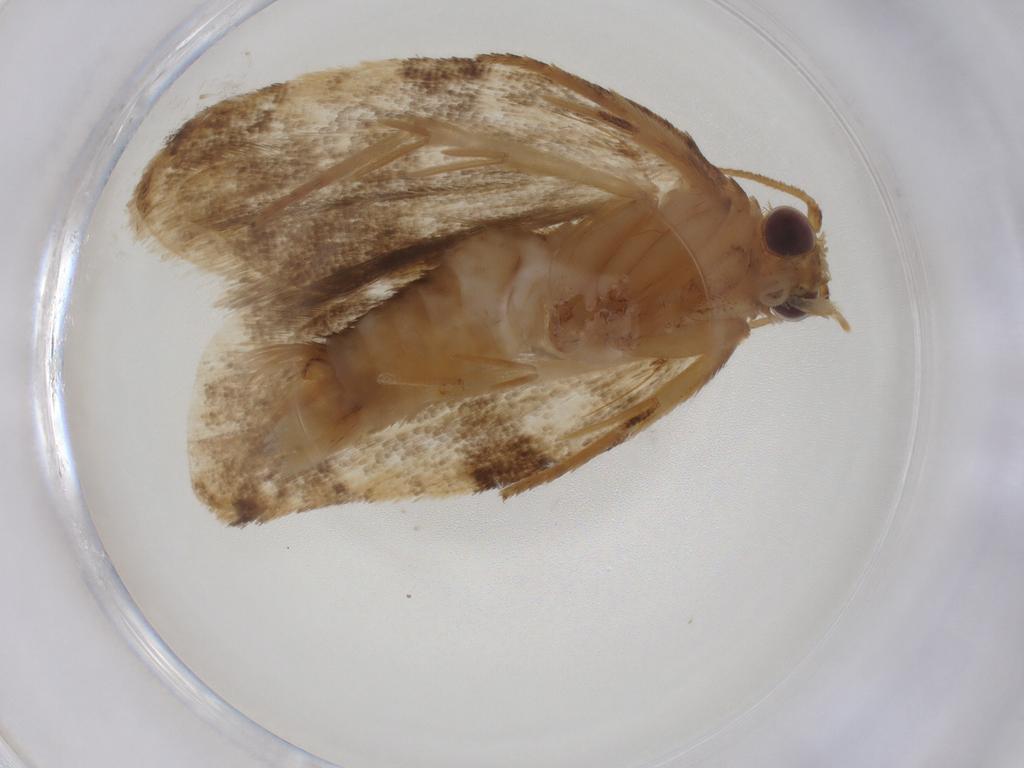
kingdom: Animalia
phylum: Arthropoda
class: Insecta
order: Lepidoptera
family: Tortricidae
